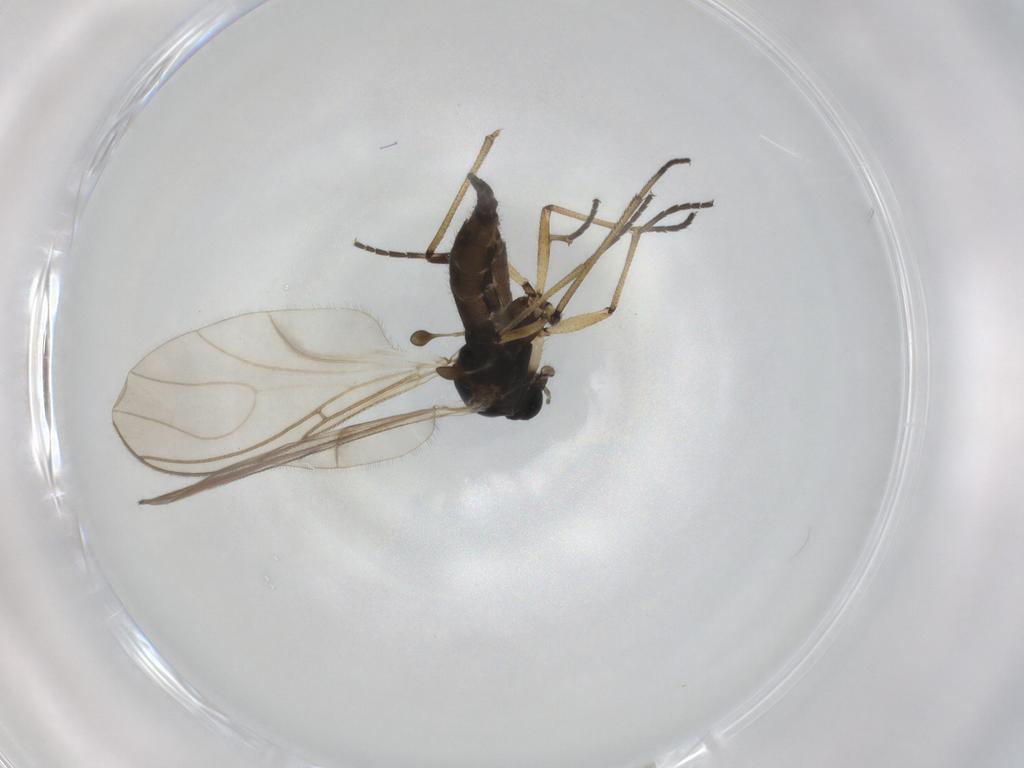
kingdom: Animalia
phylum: Arthropoda
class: Insecta
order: Diptera
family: Sciaridae
